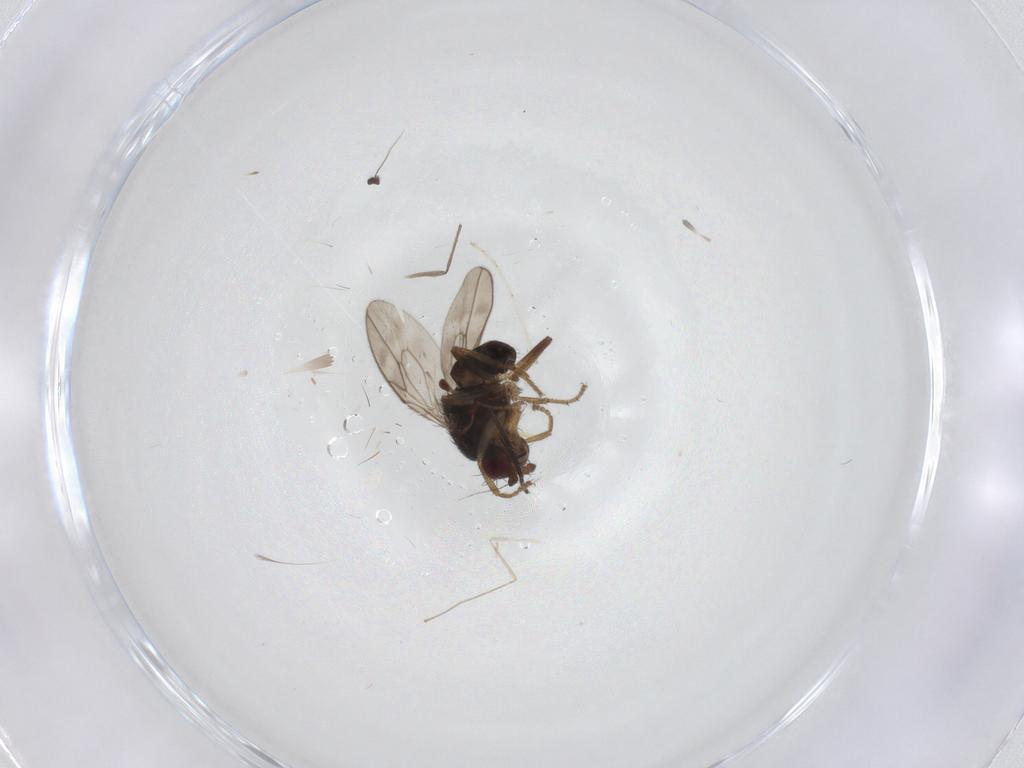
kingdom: Animalia
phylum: Arthropoda
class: Insecta
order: Diptera
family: Sphaeroceridae
